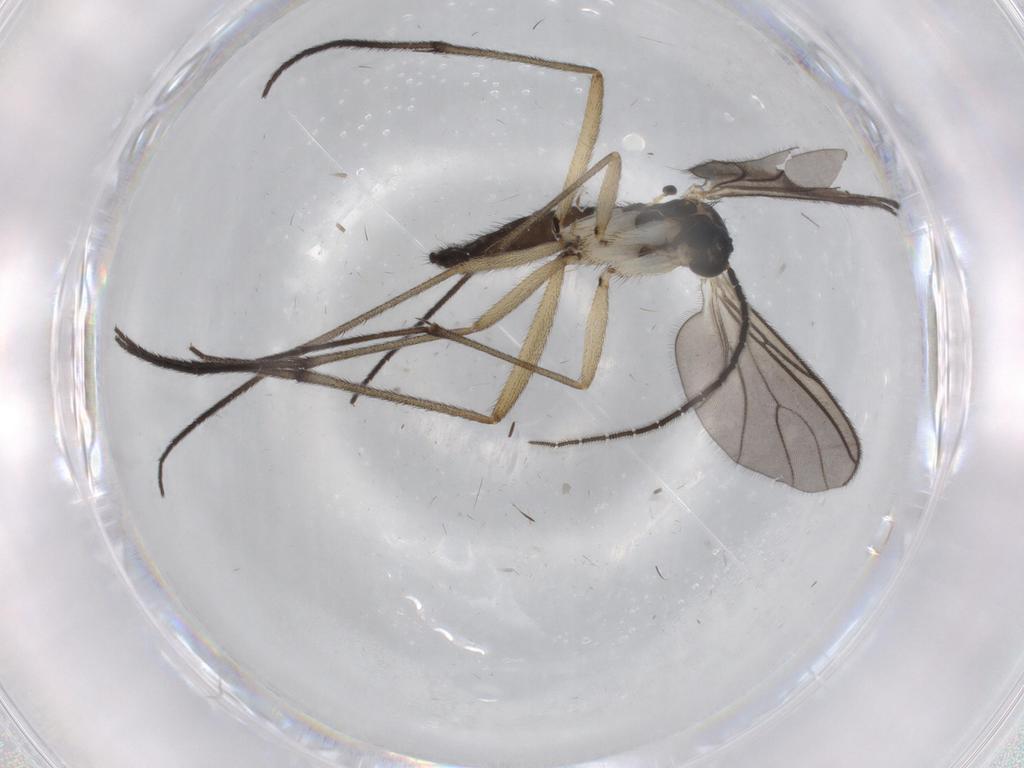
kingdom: Animalia
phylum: Arthropoda
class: Insecta
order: Diptera
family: Sciaridae
